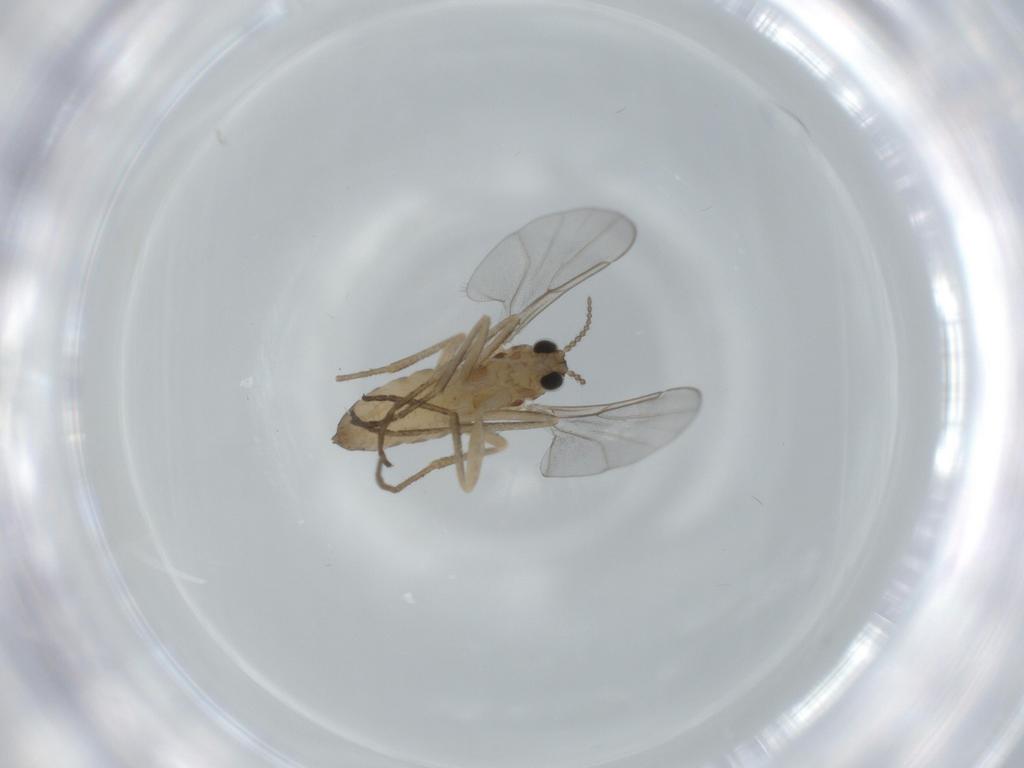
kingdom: Animalia
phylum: Arthropoda
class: Insecta
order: Diptera
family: Cecidomyiidae
